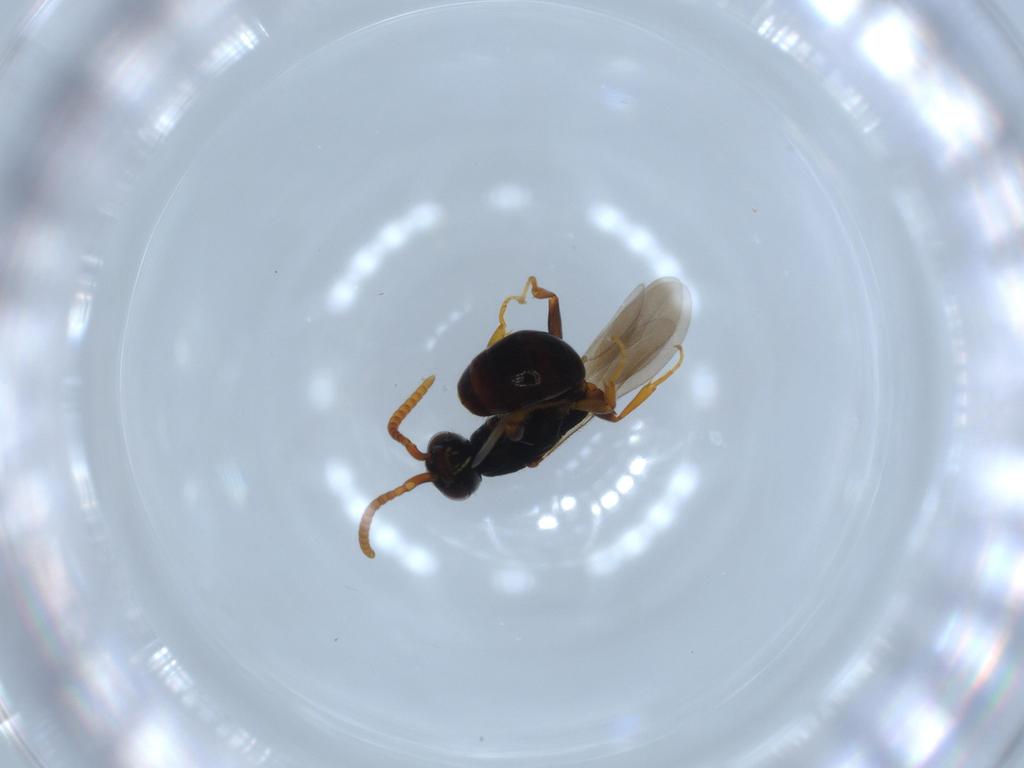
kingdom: Animalia
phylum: Arthropoda
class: Insecta
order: Hymenoptera
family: Bethylidae
